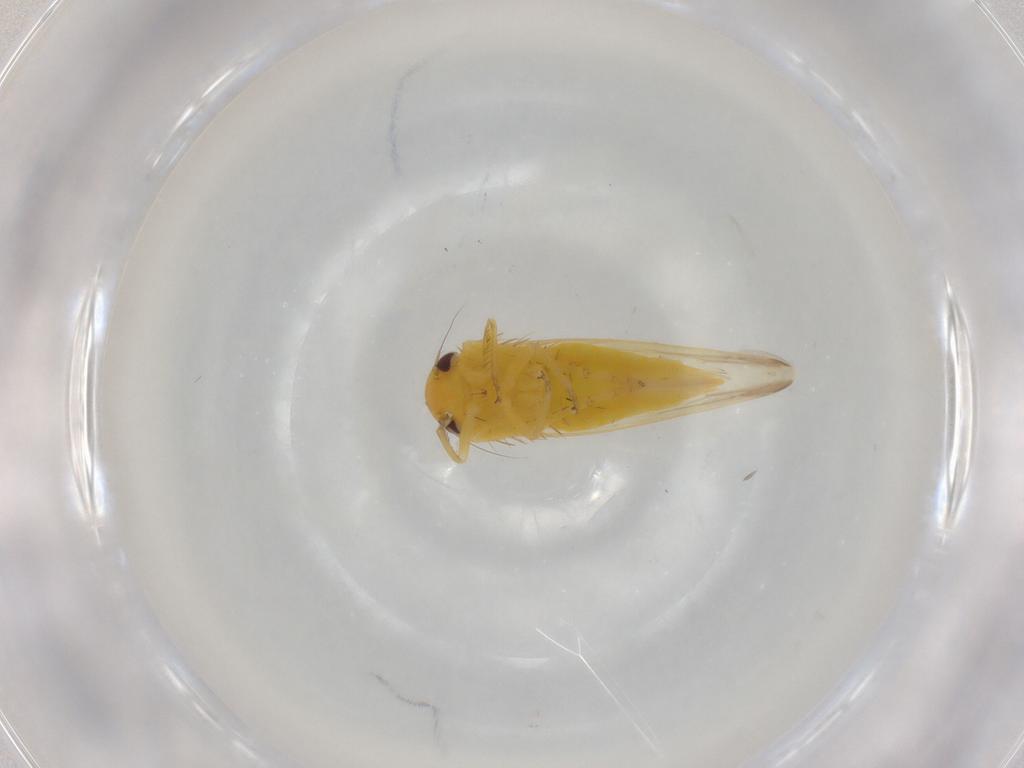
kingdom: Animalia
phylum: Arthropoda
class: Insecta
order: Hemiptera
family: Cicadellidae
